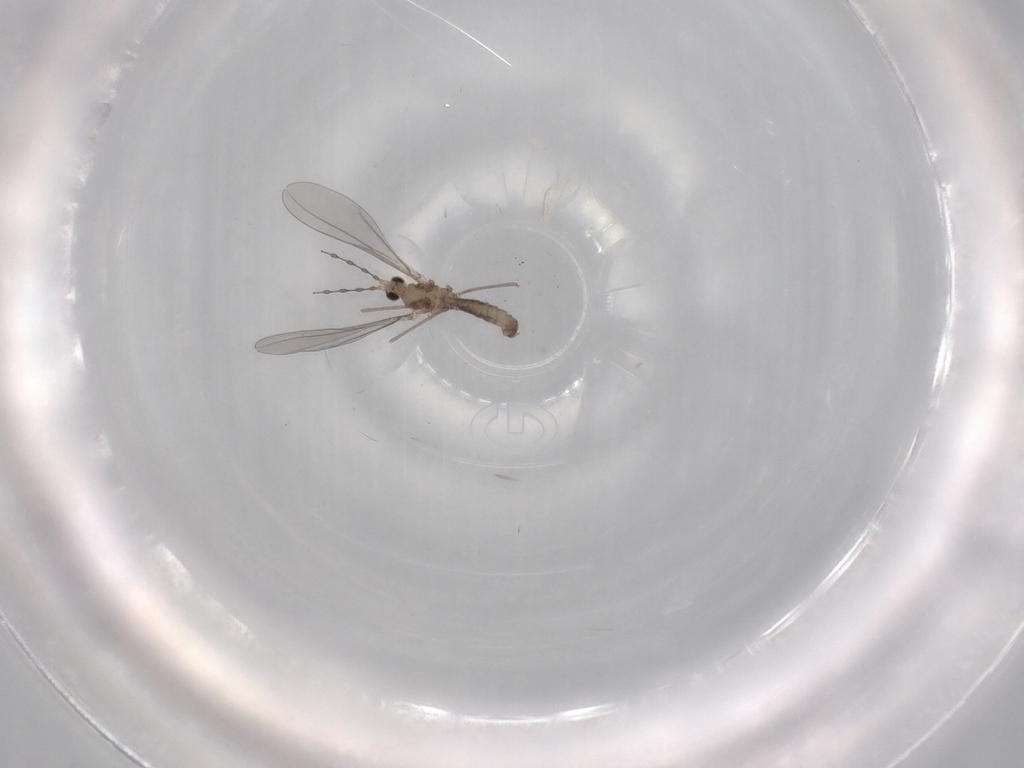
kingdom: Animalia
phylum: Arthropoda
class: Insecta
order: Diptera
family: Cecidomyiidae
